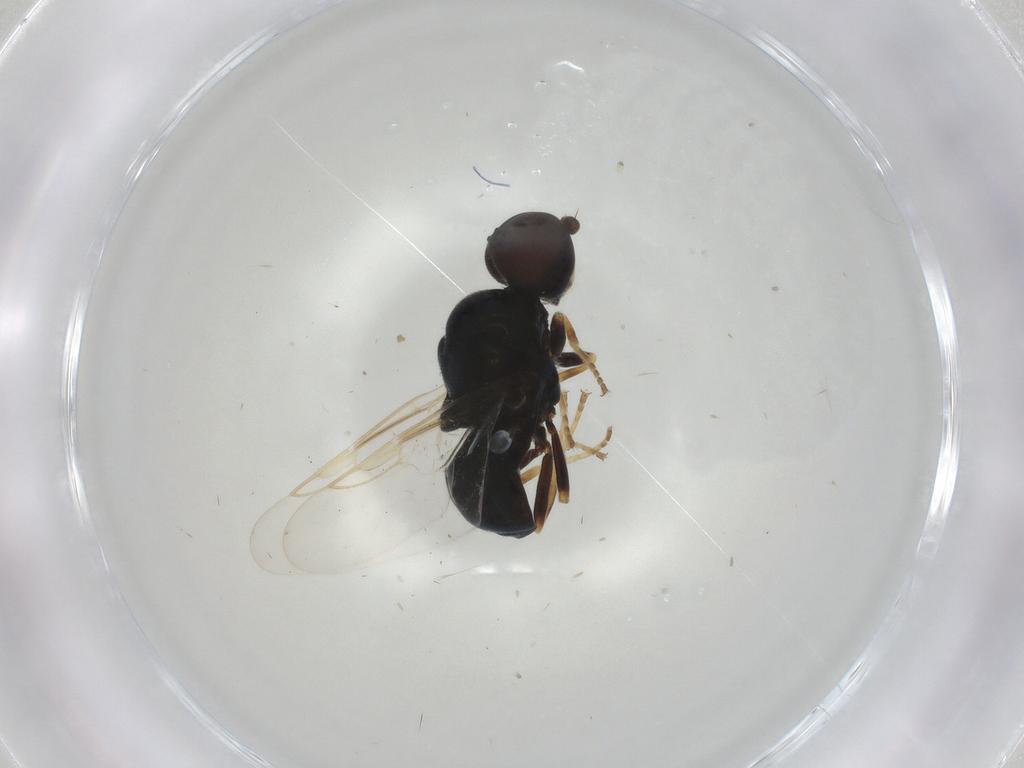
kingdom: Animalia
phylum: Arthropoda
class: Insecta
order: Diptera
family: Stratiomyidae
